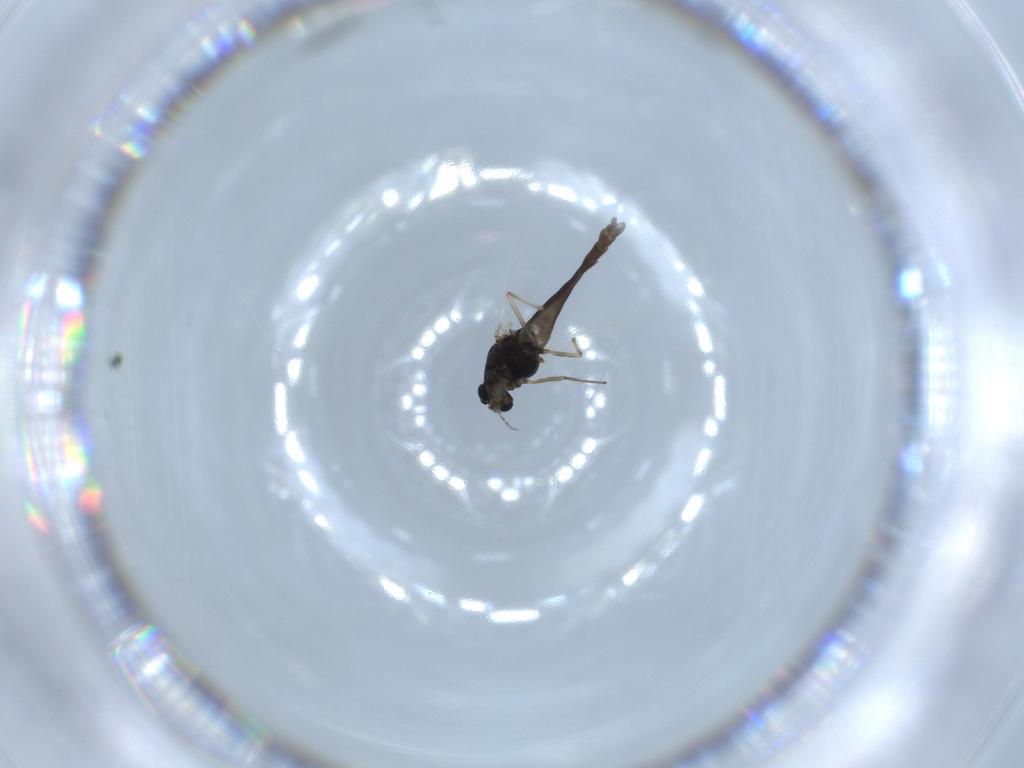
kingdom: Animalia
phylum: Arthropoda
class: Insecta
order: Diptera
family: Chironomidae
